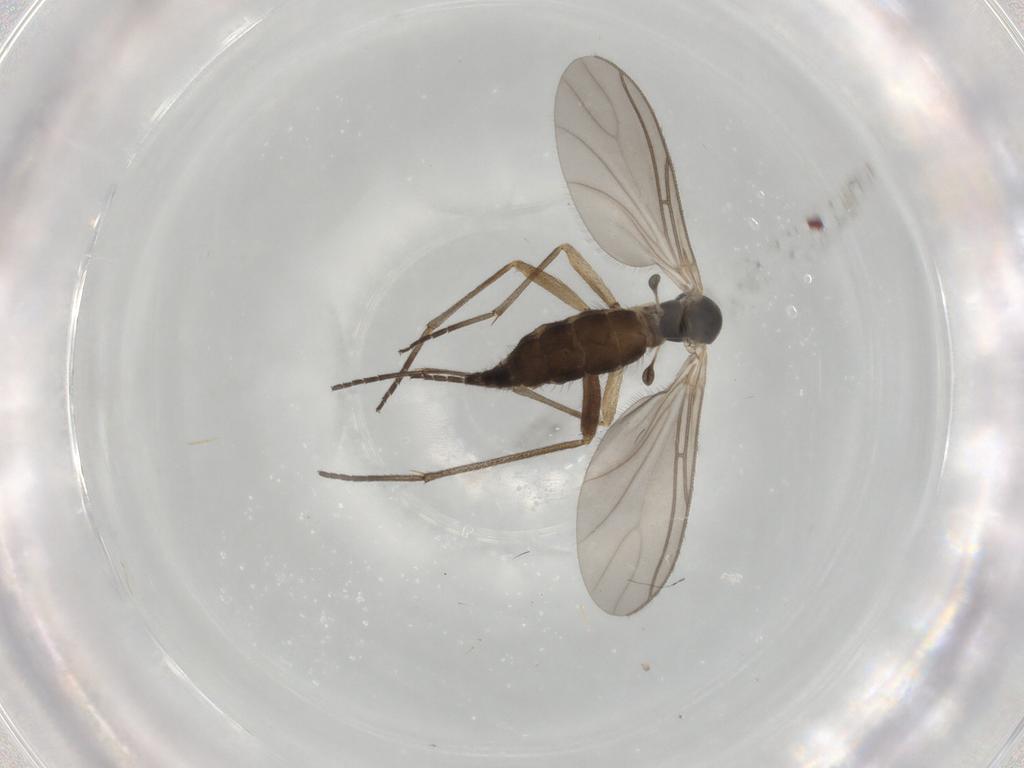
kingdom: Animalia
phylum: Arthropoda
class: Insecta
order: Diptera
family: Sciaridae
